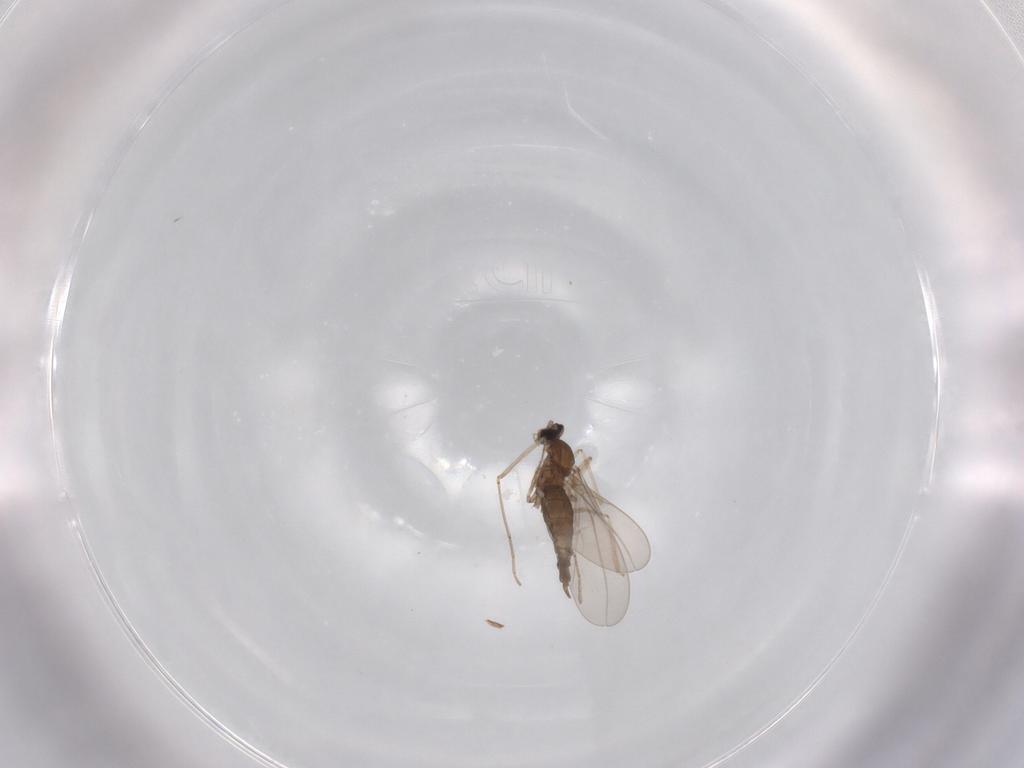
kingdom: Animalia
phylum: Arthropoda
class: Insecta
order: Diptera
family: Cecidomyiidae
